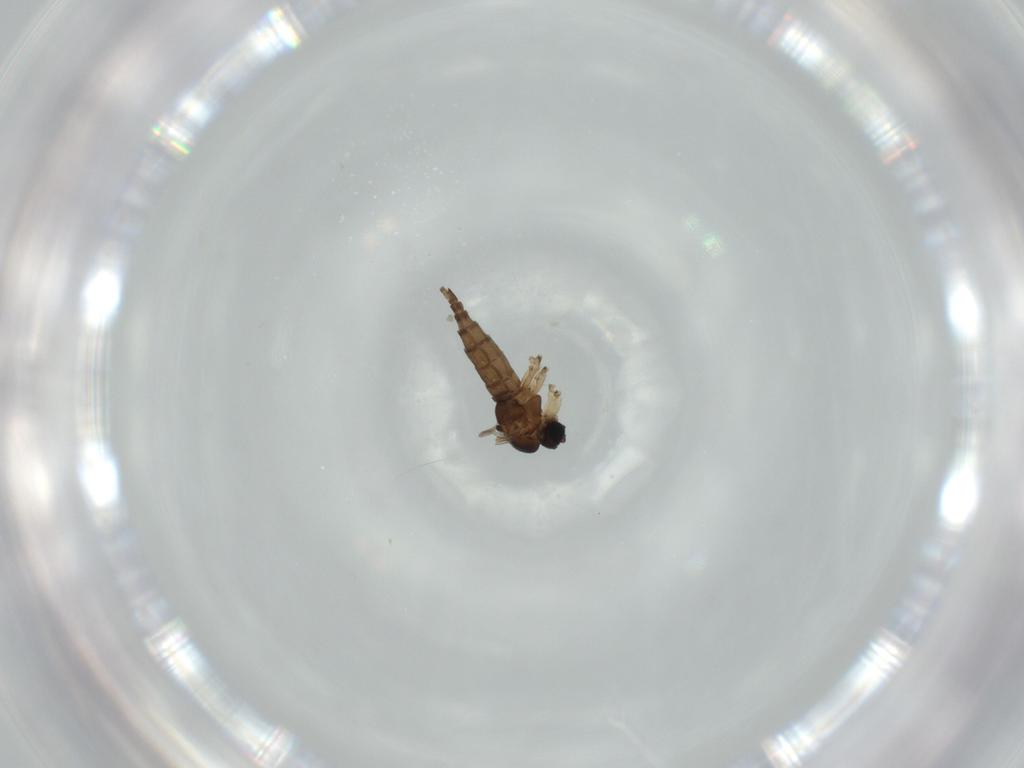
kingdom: Animalia
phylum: Arthropoda
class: Insecta
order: Diptera
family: Sciaridae
